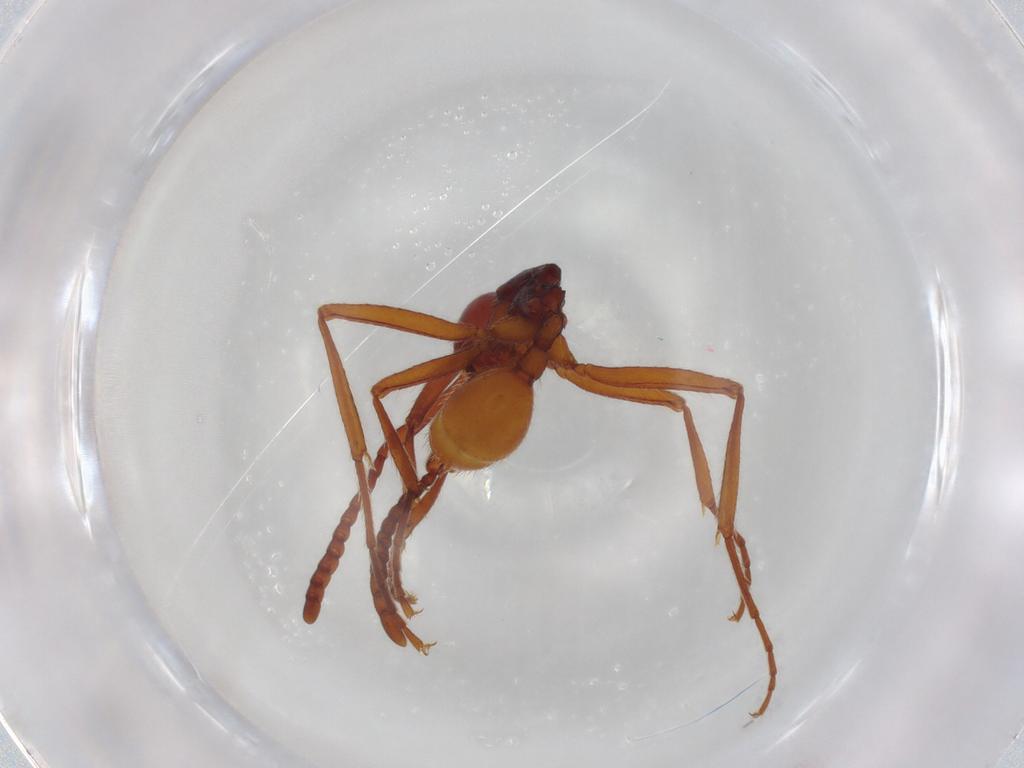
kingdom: Animalia
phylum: Arthropoda
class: Insecta
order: Hymenoptera
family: Formicidae
